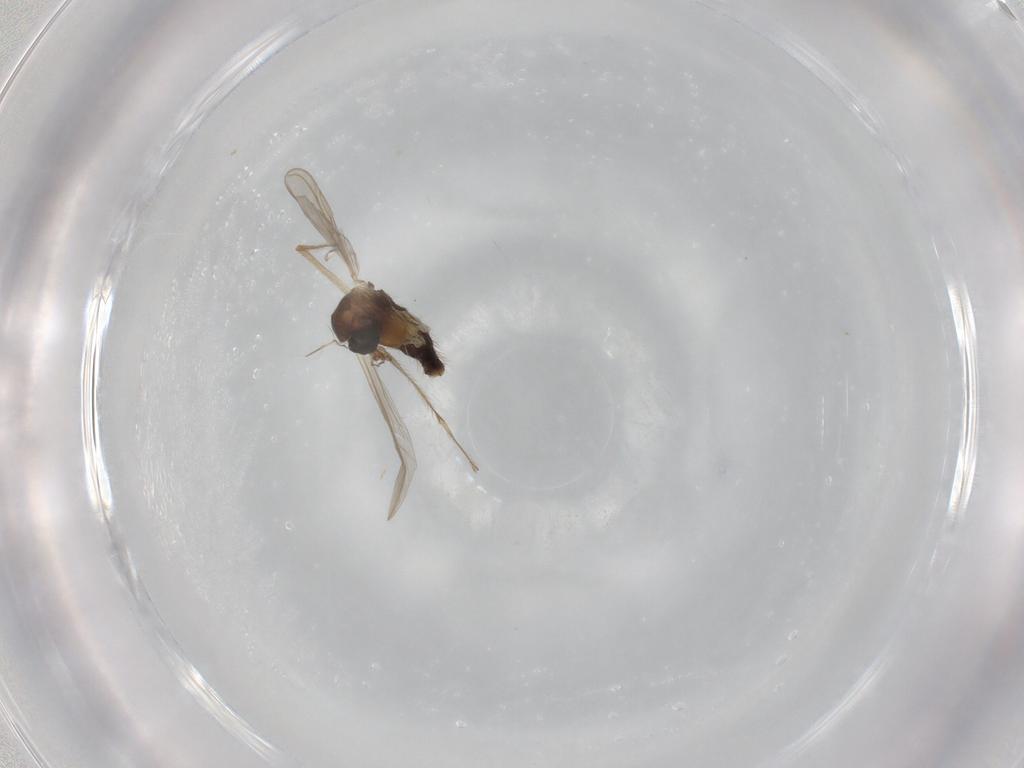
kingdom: Animalia
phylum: Arthropoda
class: Insecta
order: Diptera
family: Chironomidae
